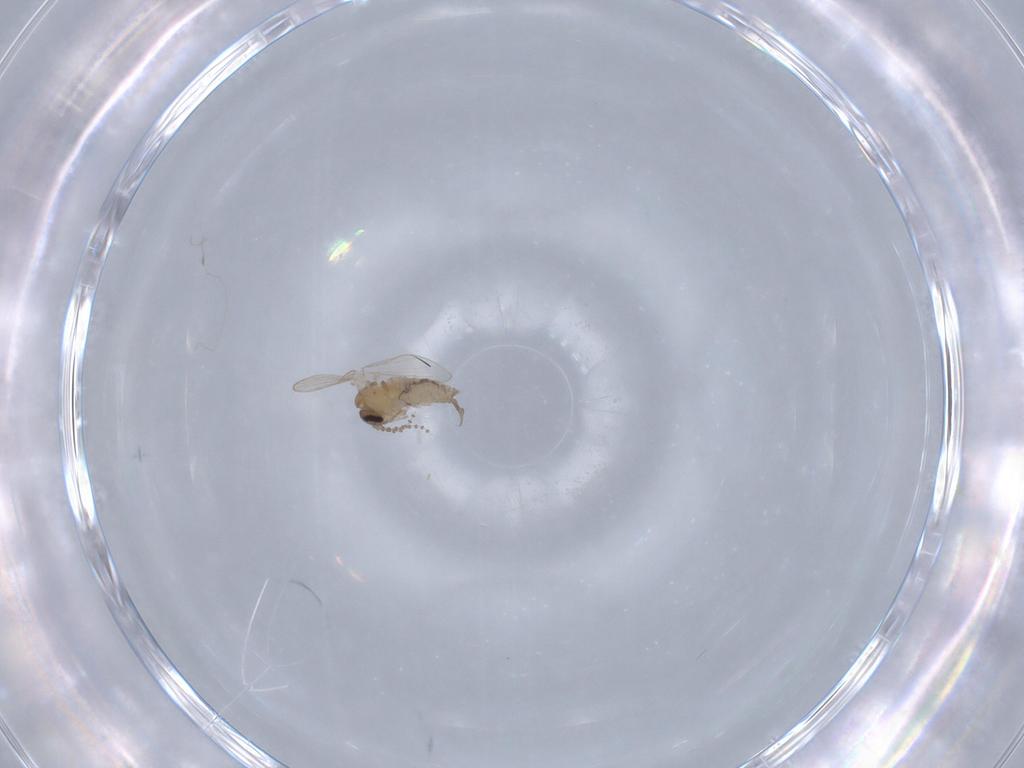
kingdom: Animalia
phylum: Arthropoda
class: Insecta
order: Diptera
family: Psychodidae
